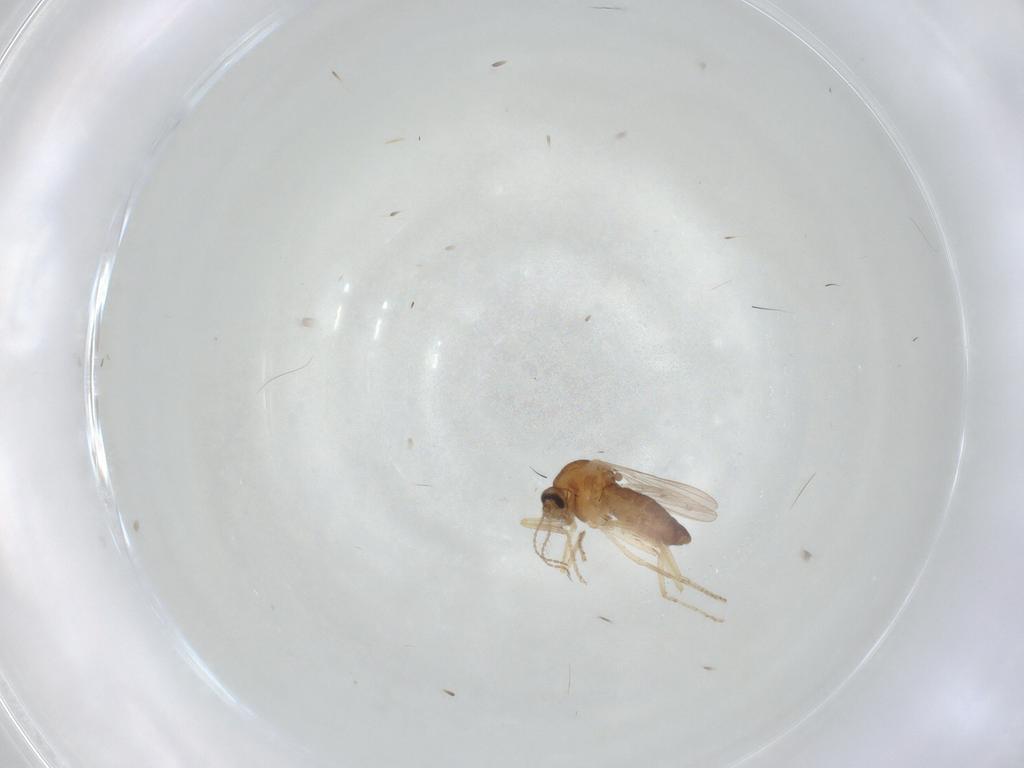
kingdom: Animalia
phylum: Arthropoda
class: Insecta
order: Diptera
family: Ceratopogonidae
